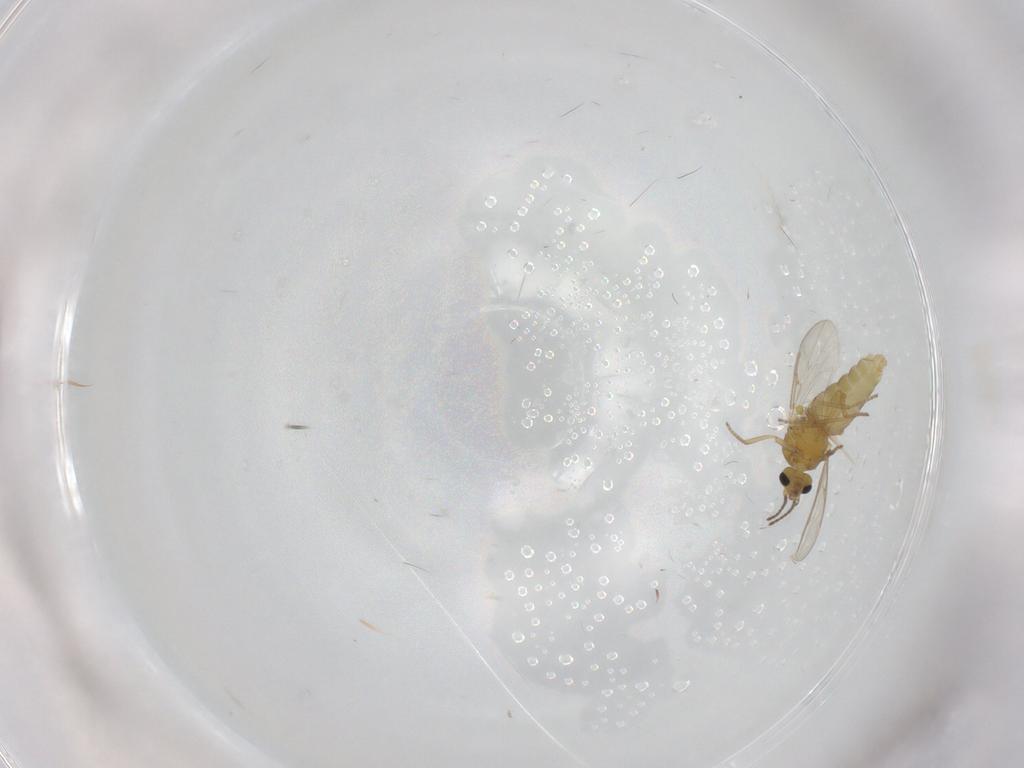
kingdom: Animalia
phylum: Arthropoda
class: Insecta
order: Diptera
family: Ceratopogonidae
